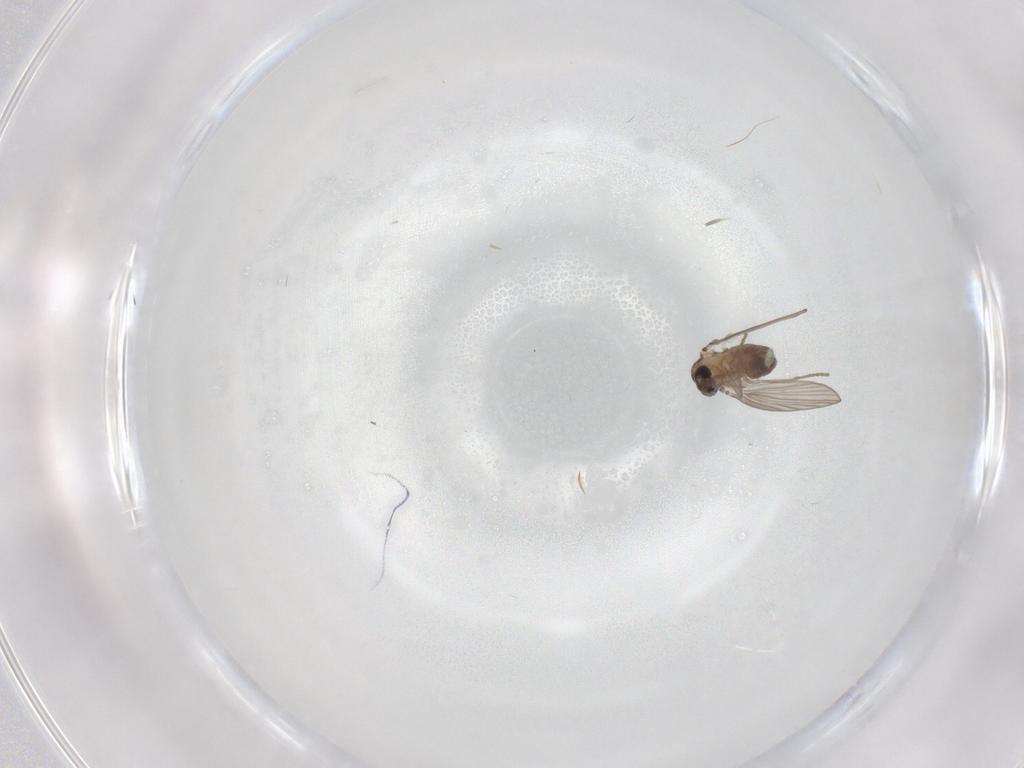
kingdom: Animalia
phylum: Arthropoda
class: Insecta
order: Diptera
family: Psychodidae
